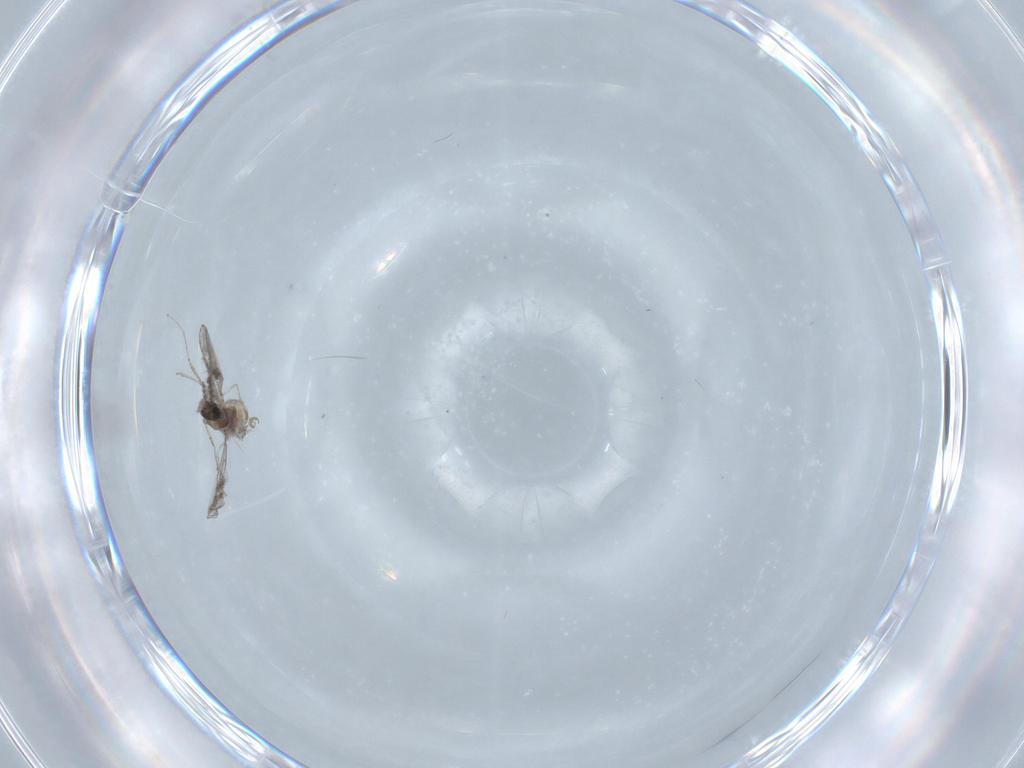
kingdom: Animalia
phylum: Arthropoda
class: Insecta
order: Diptera
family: Cecidomyiidae
